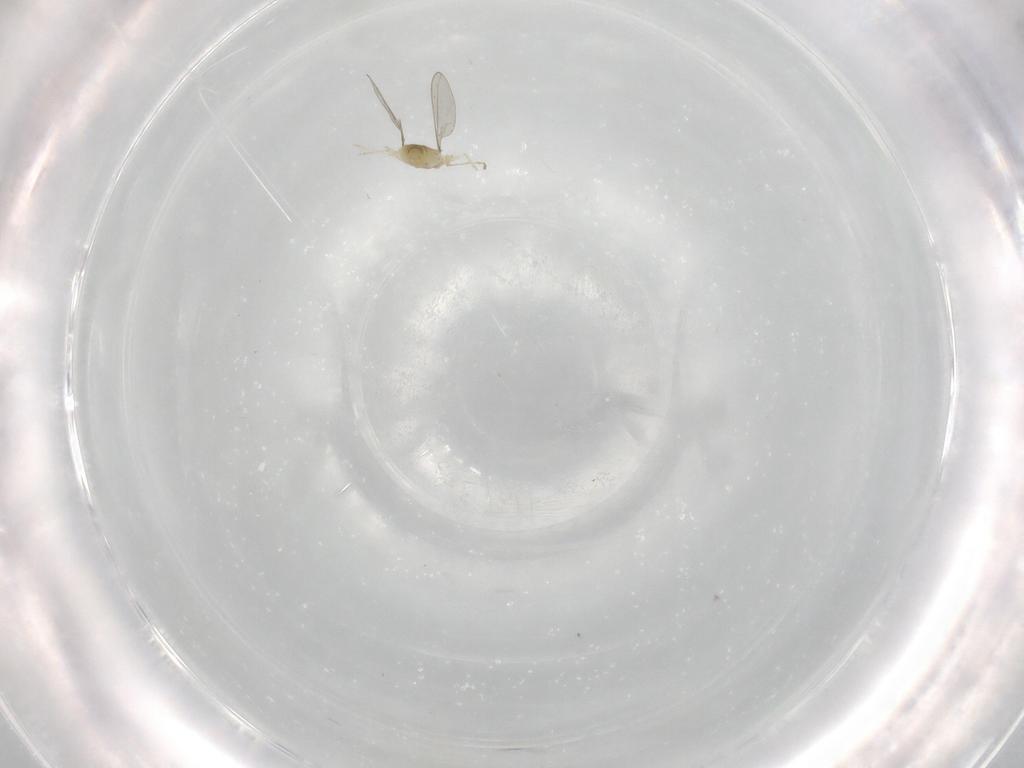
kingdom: Animalia
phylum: Arthropoda
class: Insecta
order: Diptera
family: Cecidomyiidae
